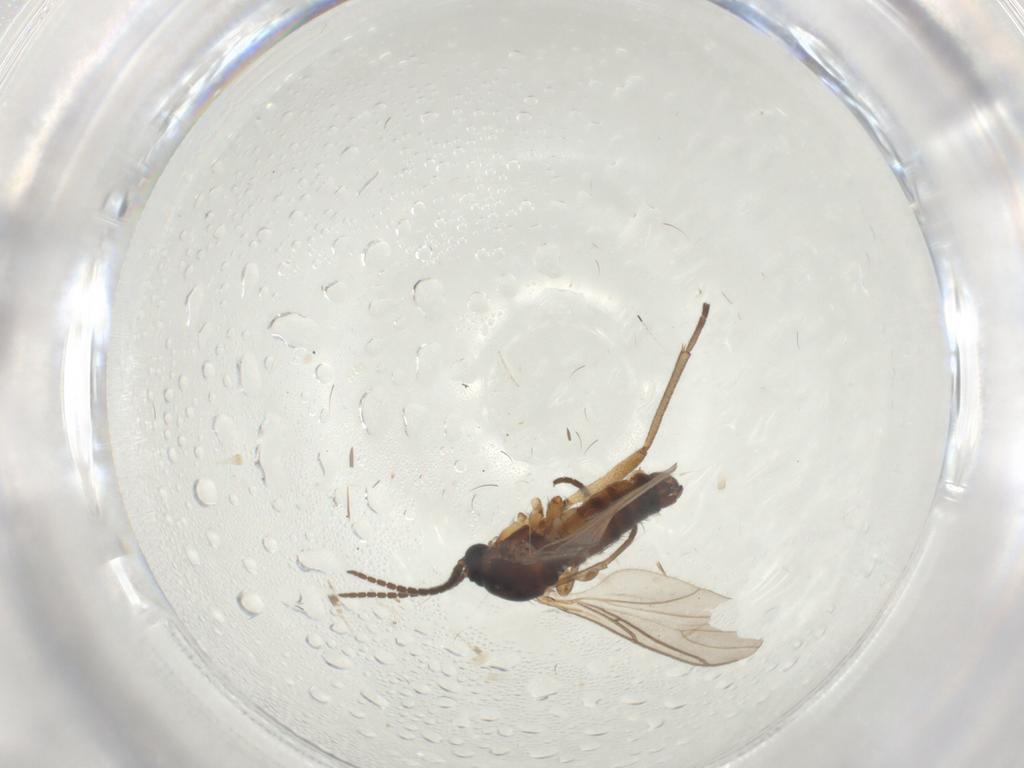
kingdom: Animalia
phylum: Arthropoda
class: Insecta
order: Diptera
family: Sciaridae
